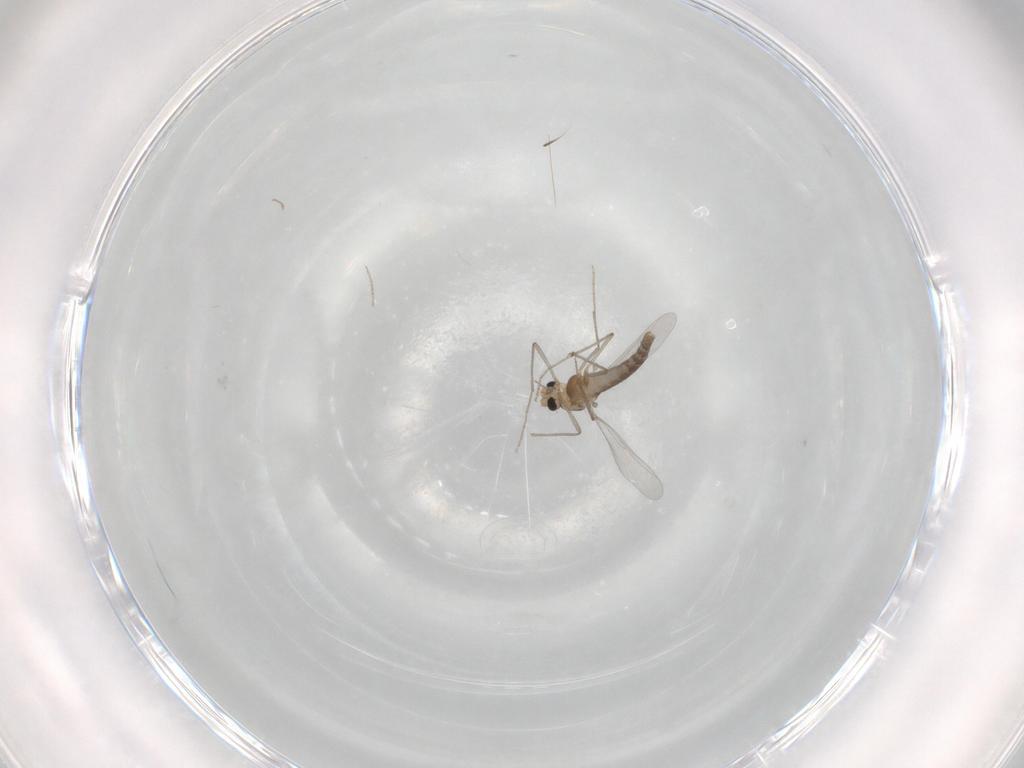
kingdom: Animalia
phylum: Arthropoda
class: Insecta
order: Diptera
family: Chironomidae
